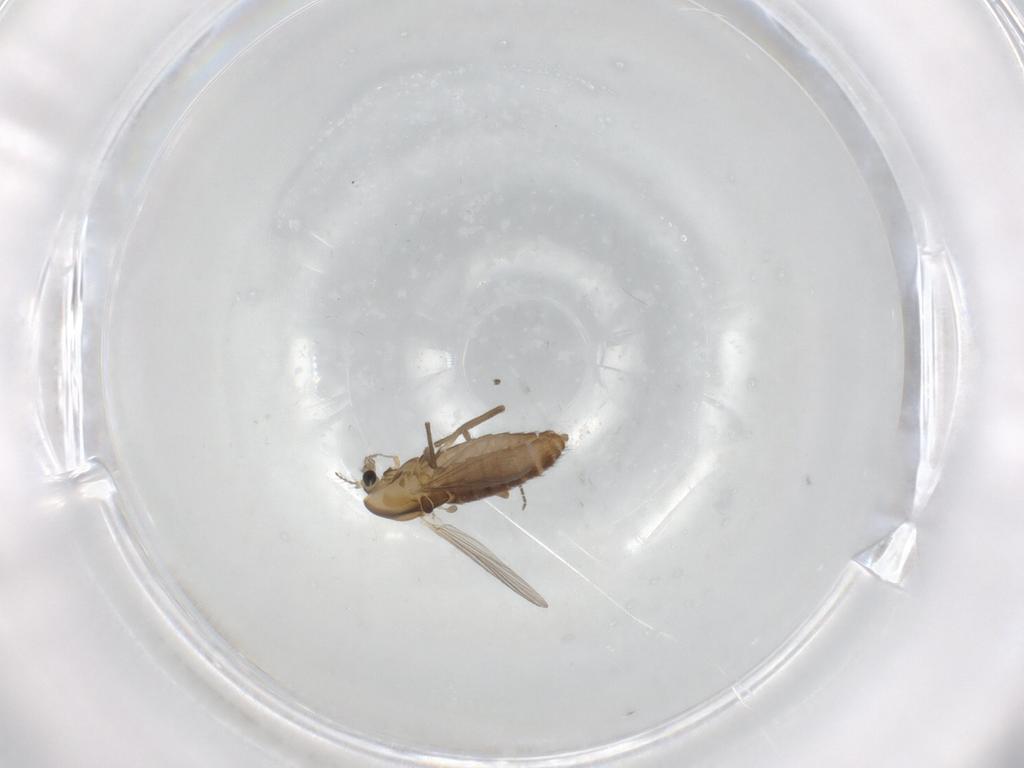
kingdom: Animalia
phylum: Arthropoda
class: Insecta
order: Diptera
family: Chironomidae
